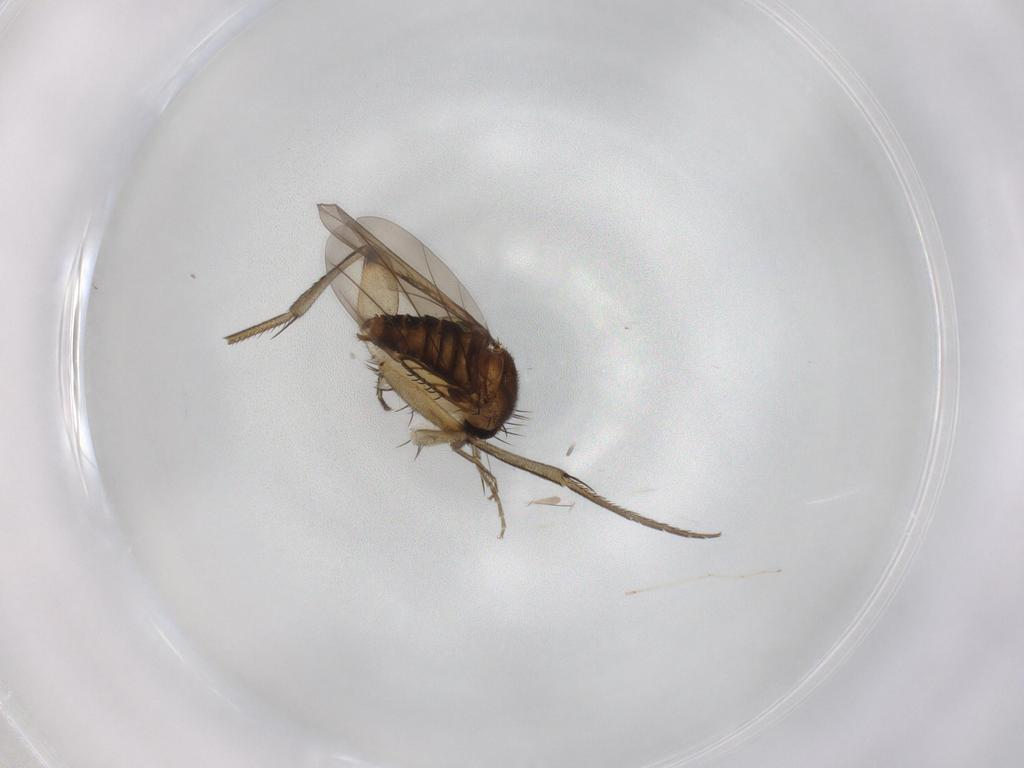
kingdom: Animalia
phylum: Arthropoda
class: Insecta
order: Diptera
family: Phoridae
